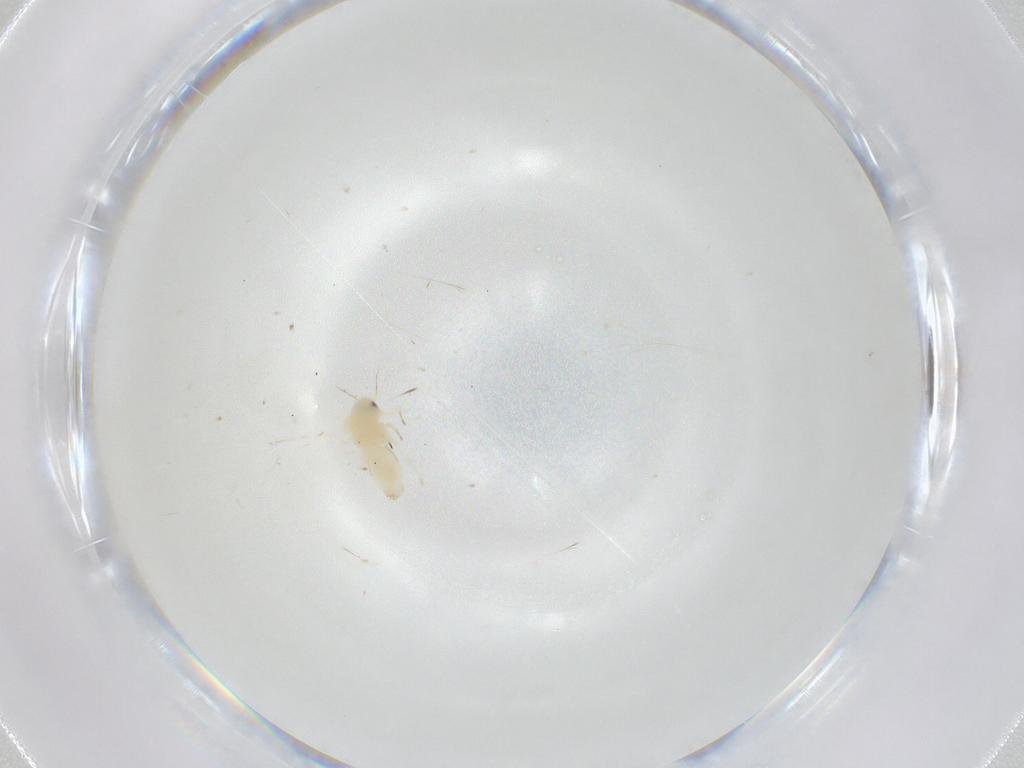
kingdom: Animalia
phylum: Arthropoda
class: Insecta
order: Hemiptera
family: Aleyrodidae
